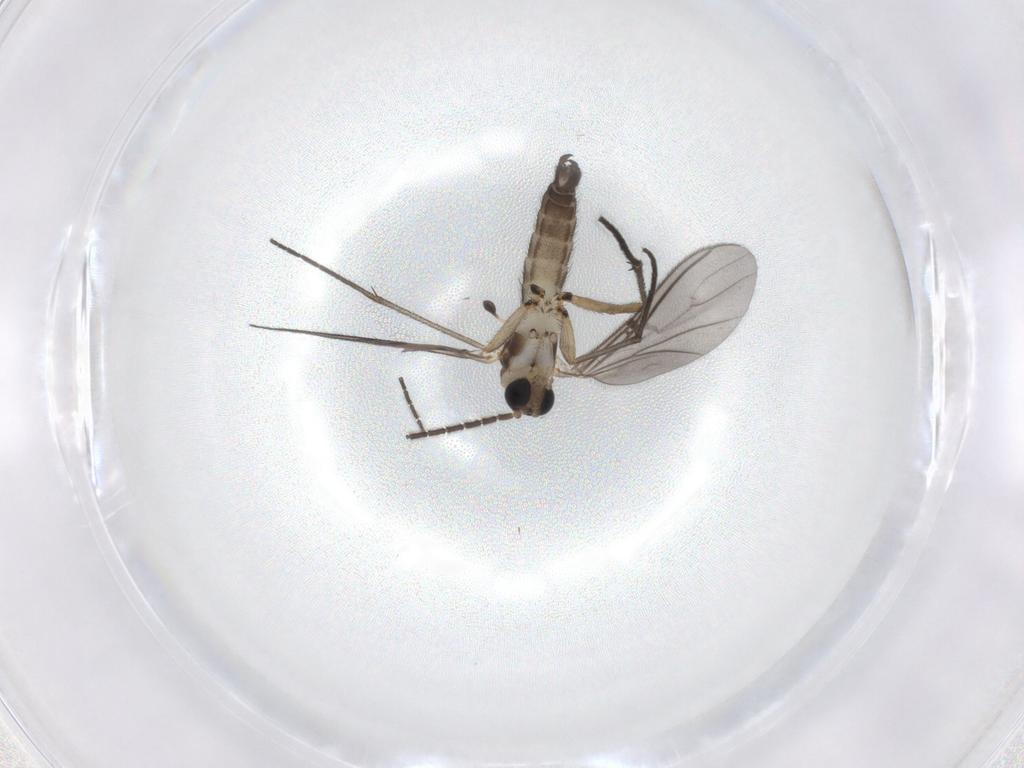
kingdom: Animalia
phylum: Arthropoda
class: Insecta
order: Diptera
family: Sciaridae
